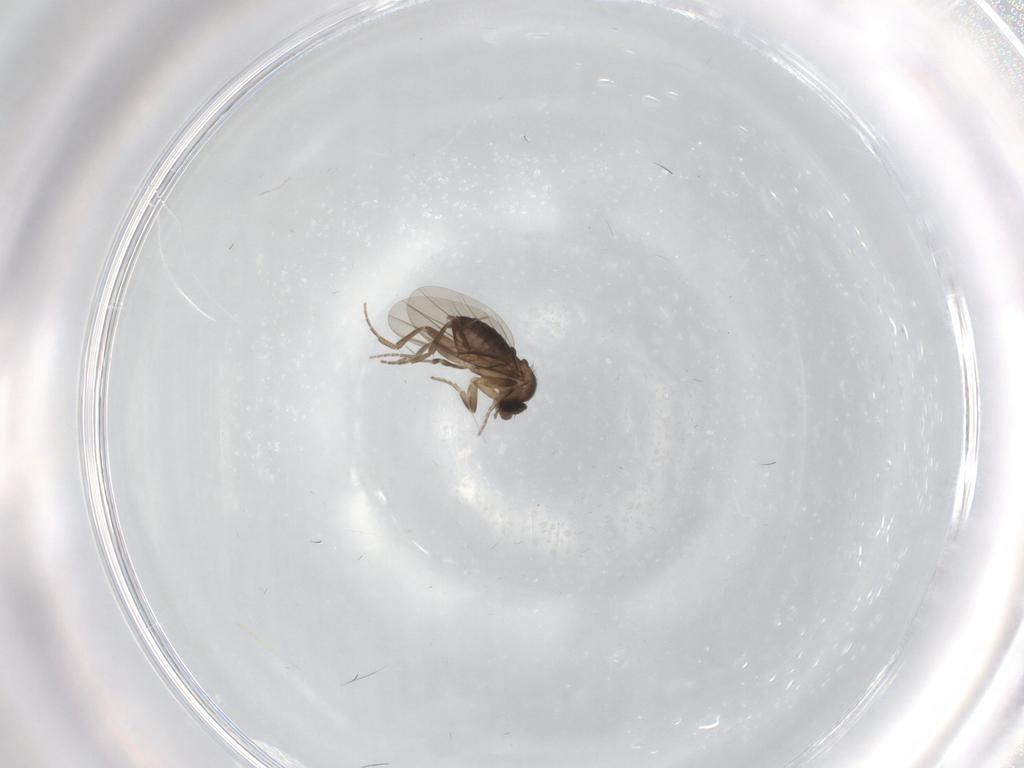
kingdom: Animalia
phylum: Arthropoda
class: Insecta
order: Diptera
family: Phoridae
